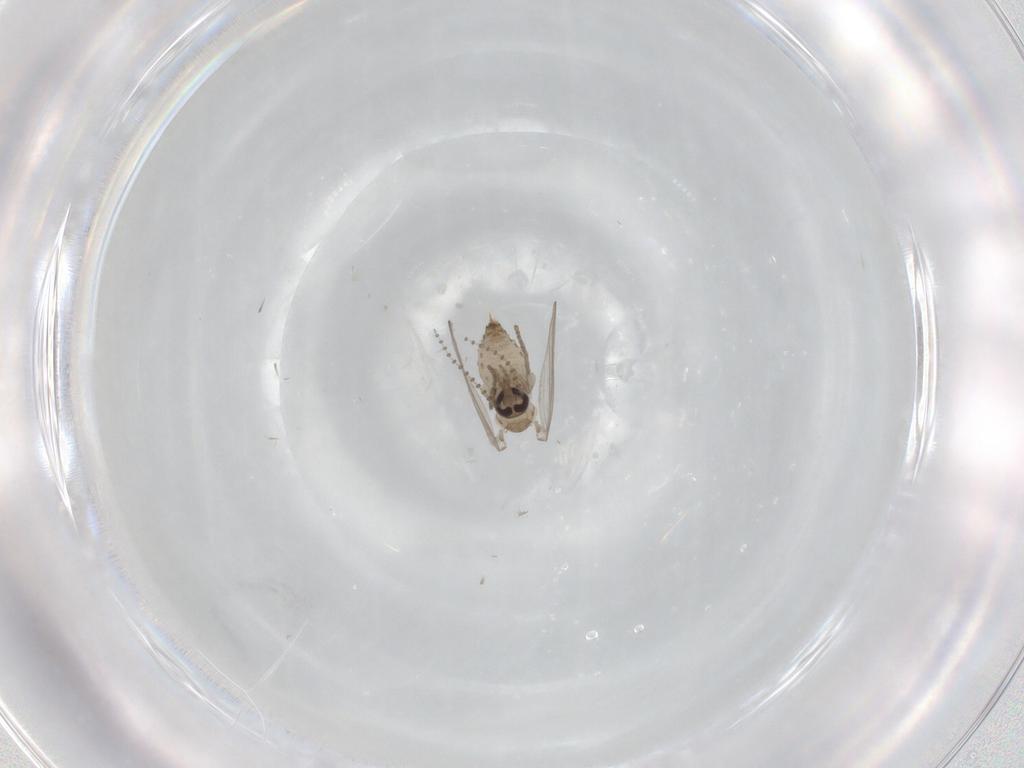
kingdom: Animalia
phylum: Arthropoda
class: Insecta
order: Diptera
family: Psychodidae
